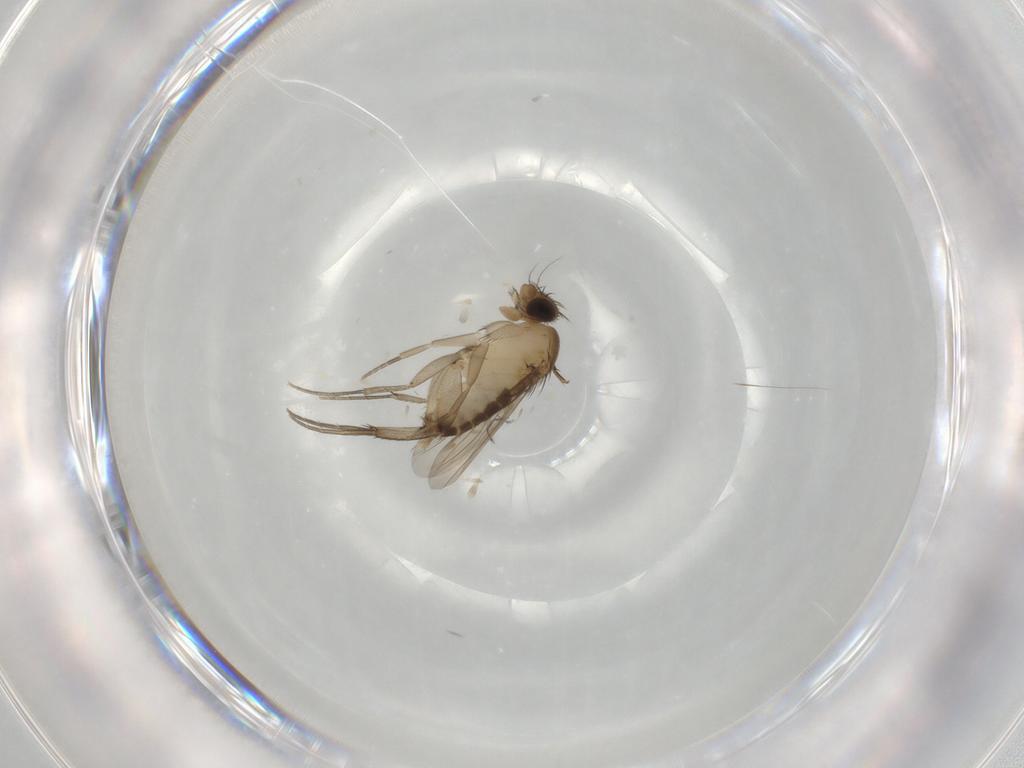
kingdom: Animalia
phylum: Arthropoda
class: Insecta
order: Diptera
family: Phoridae
